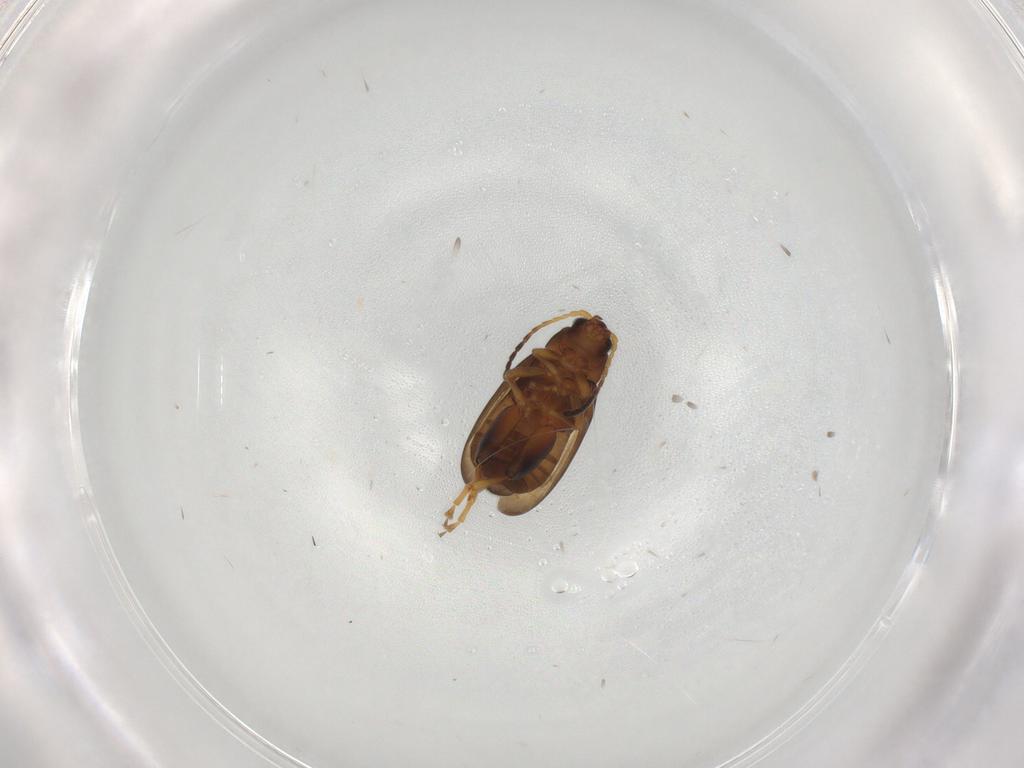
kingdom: Animalia
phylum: Arthropoda
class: Insecta
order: Coleoptera
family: Chrysomelidae
